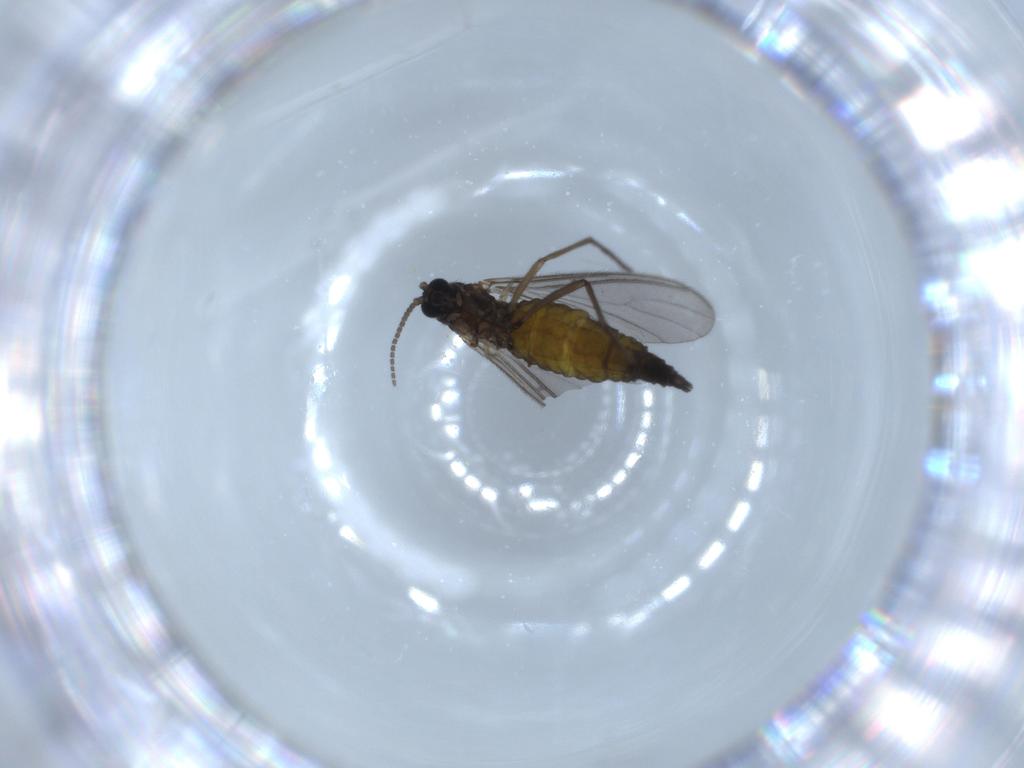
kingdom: Animalia
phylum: Arthropoda
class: Insecta
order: Diptera
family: Sciaridae
